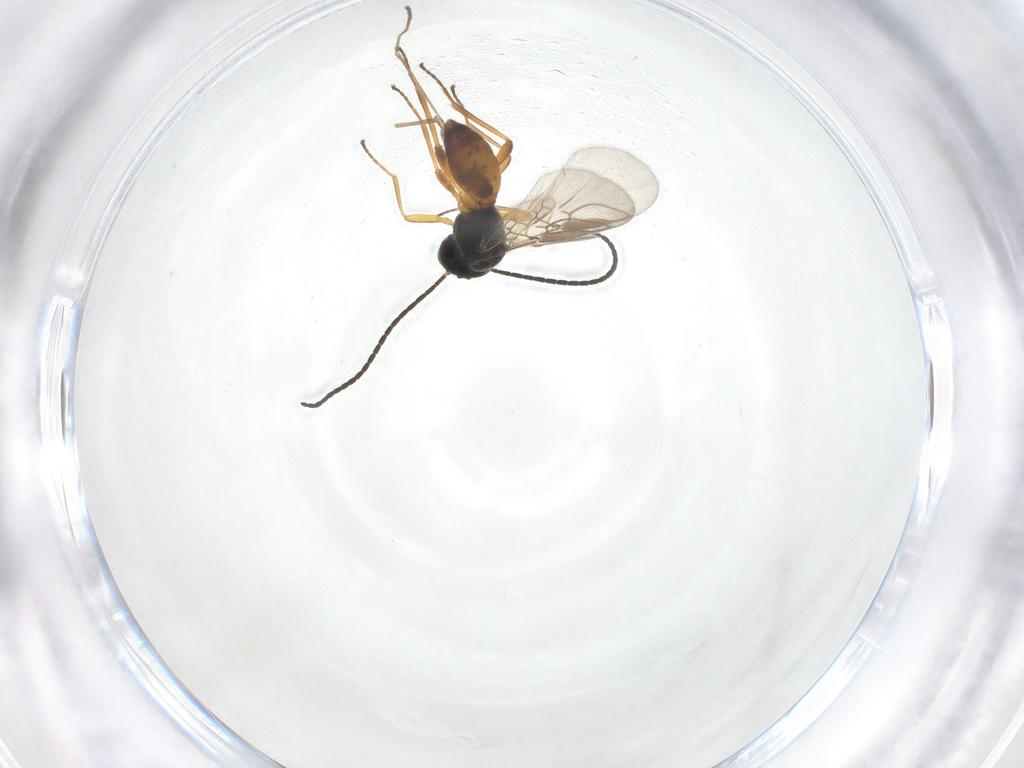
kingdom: Animalia
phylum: Arthropoda
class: Insecta
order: Hymenoptera
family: Braconidae
